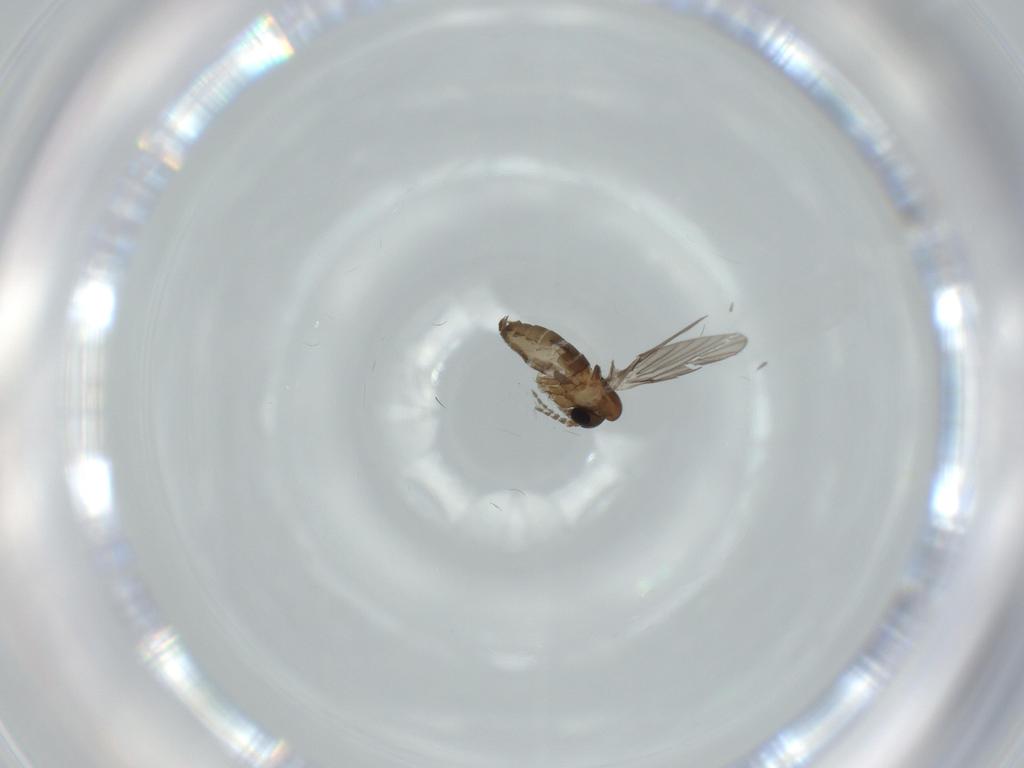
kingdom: Animalia
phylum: Arthropoda
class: Insecta
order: Diptera
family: Psychodidae
